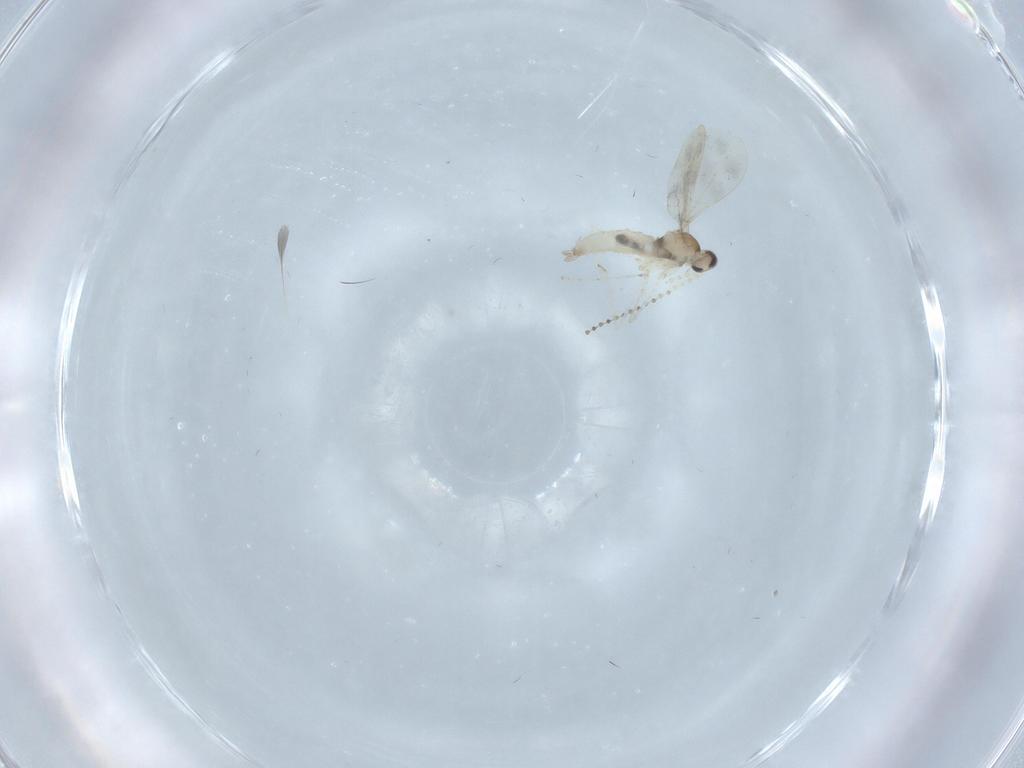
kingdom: Animalia
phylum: Arthropoda
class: Insecta
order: Diptera
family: Cecidomyiidae
